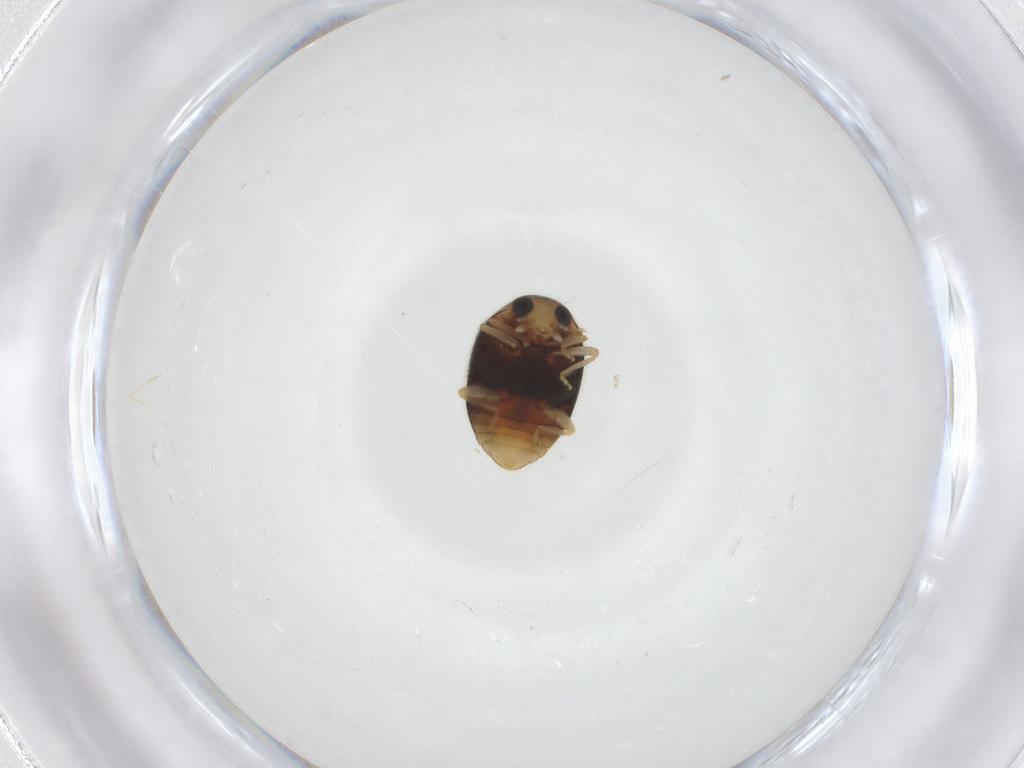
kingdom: Animalia
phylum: Arthropoda
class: Insecta
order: Coleoptera
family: Coccinellidae
